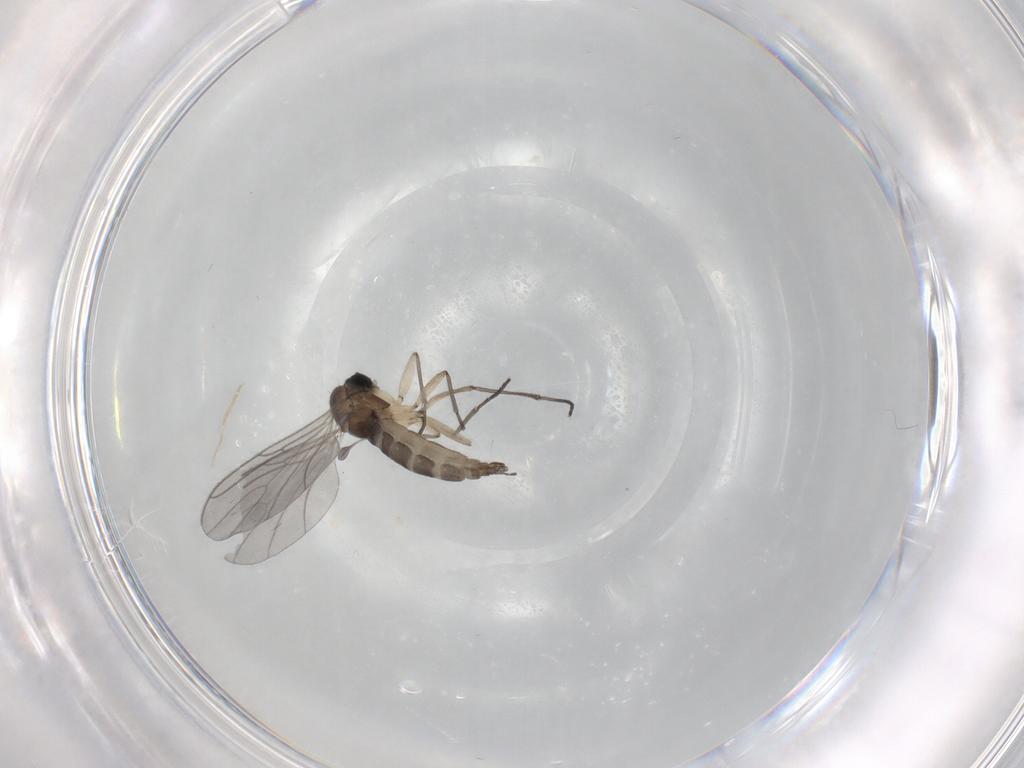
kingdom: Animalia
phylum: Arthropoda
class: Insecta
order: Diptera
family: Sciaridae
